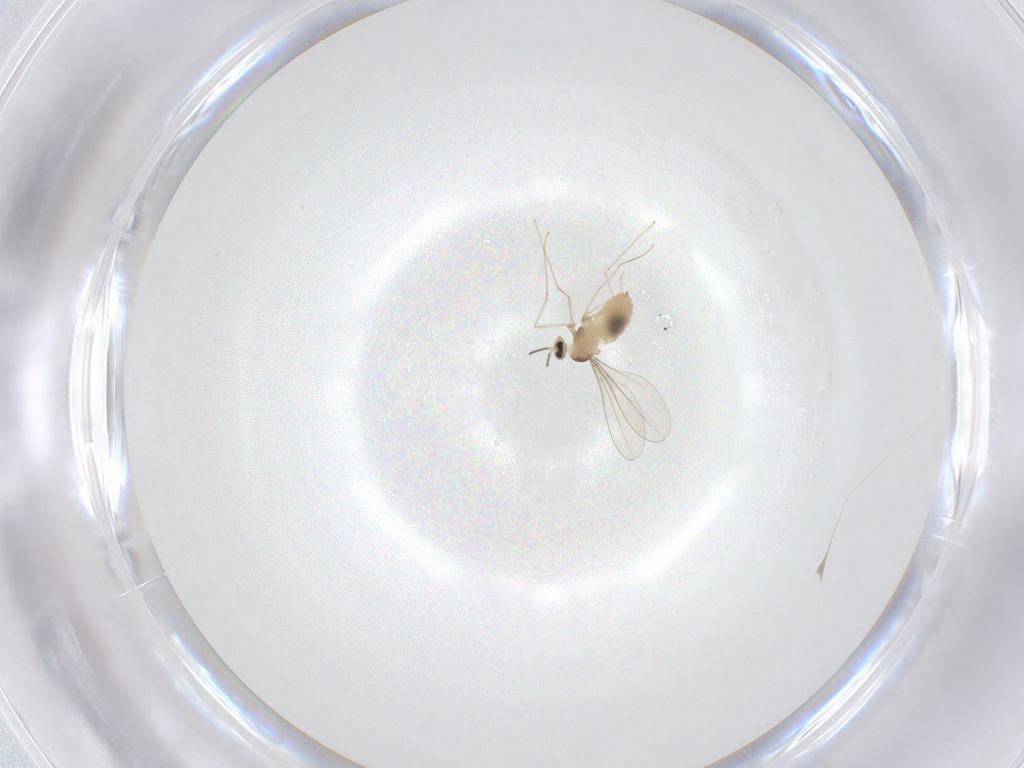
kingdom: Animalia
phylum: Arthropoda
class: Insecta
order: Diptera
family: Cecidomyiidae
